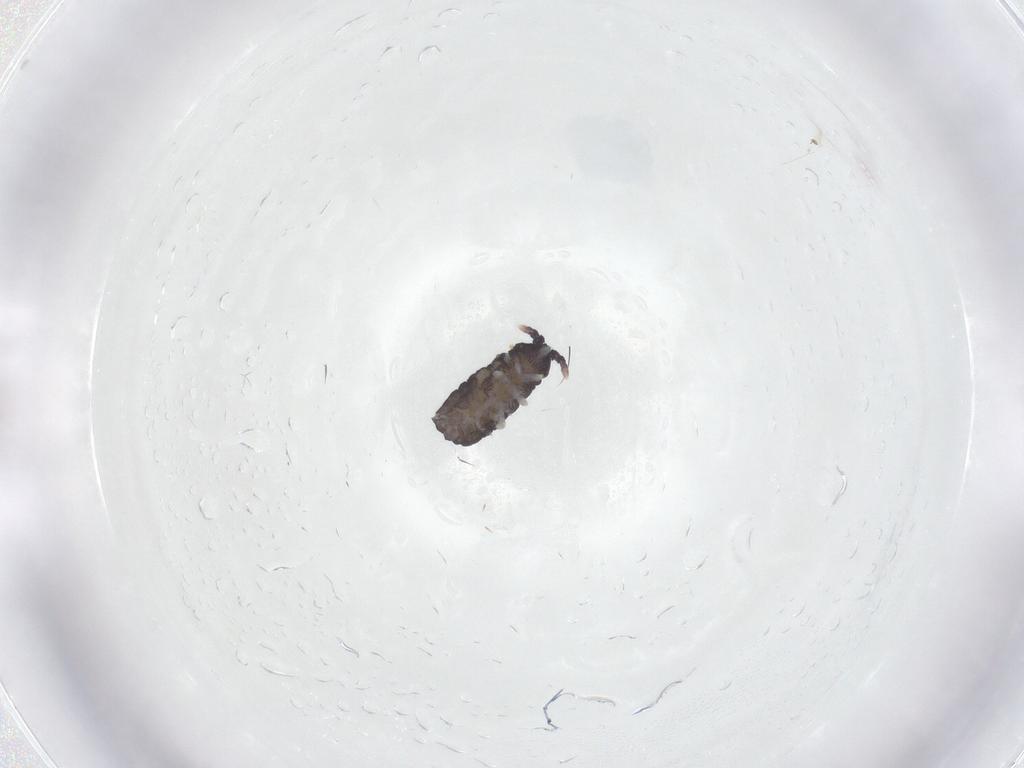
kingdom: Animalia
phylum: Arthropoda
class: Collembola
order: Poduromorpha
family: Neanuridae
